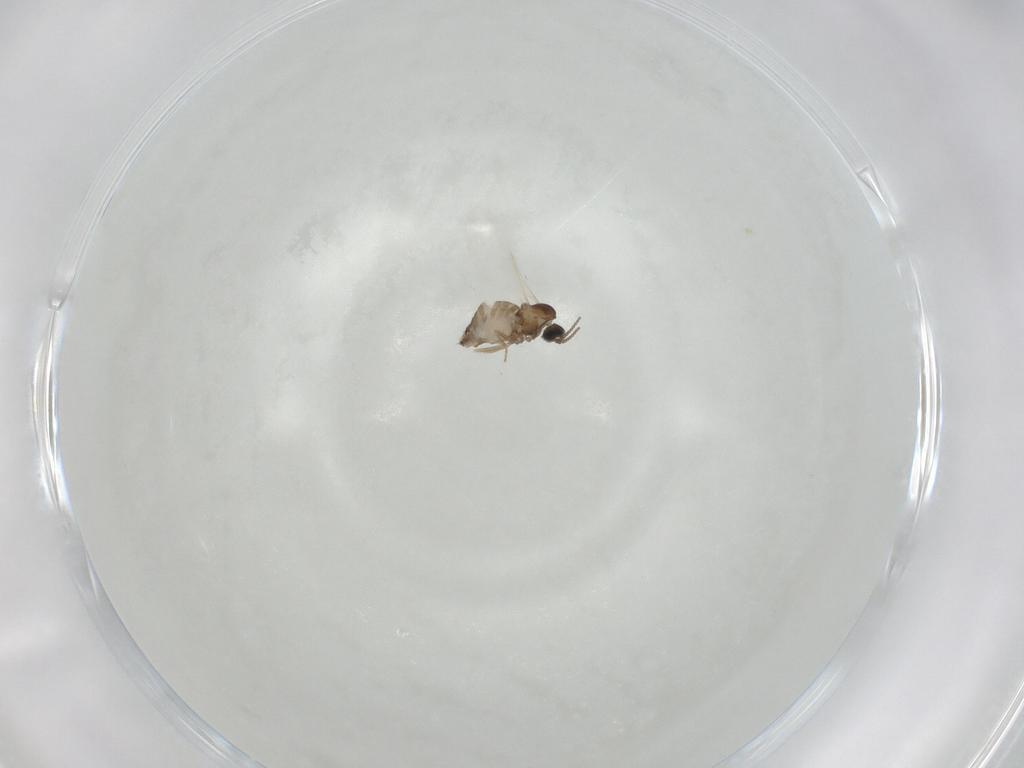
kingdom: Animalia
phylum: Arthropoda
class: Insecta
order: Diptera
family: Cecidomyiidae
